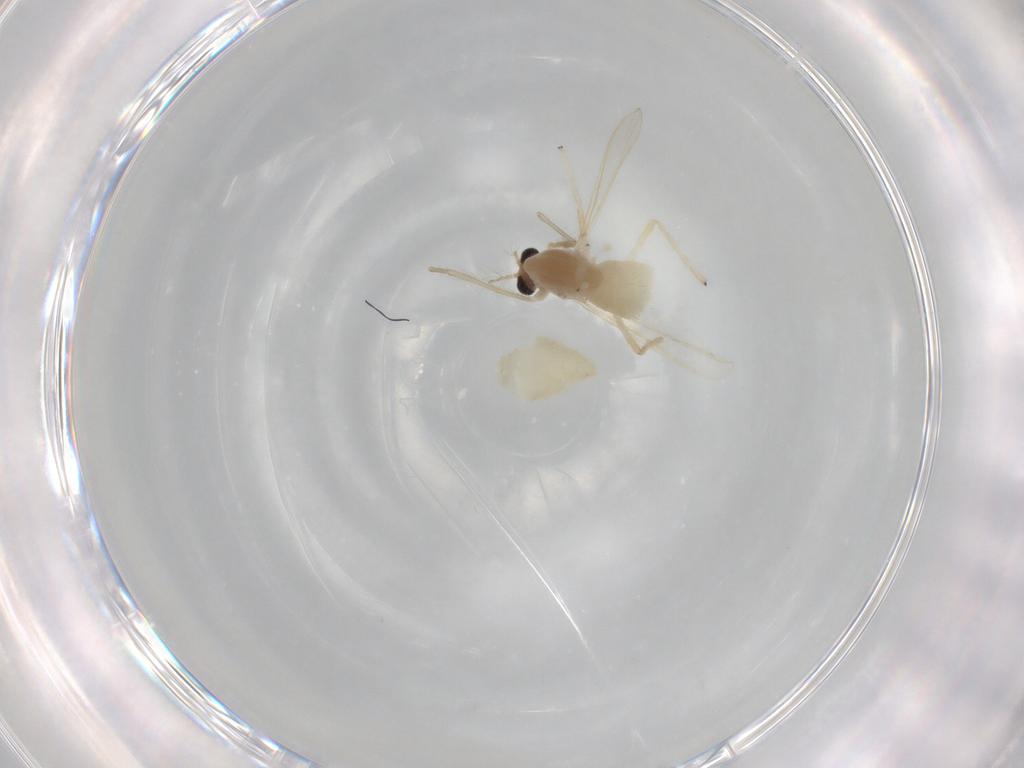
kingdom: Animalia
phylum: Arthropoda
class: Insecta
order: Diptera
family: Chironomidae
